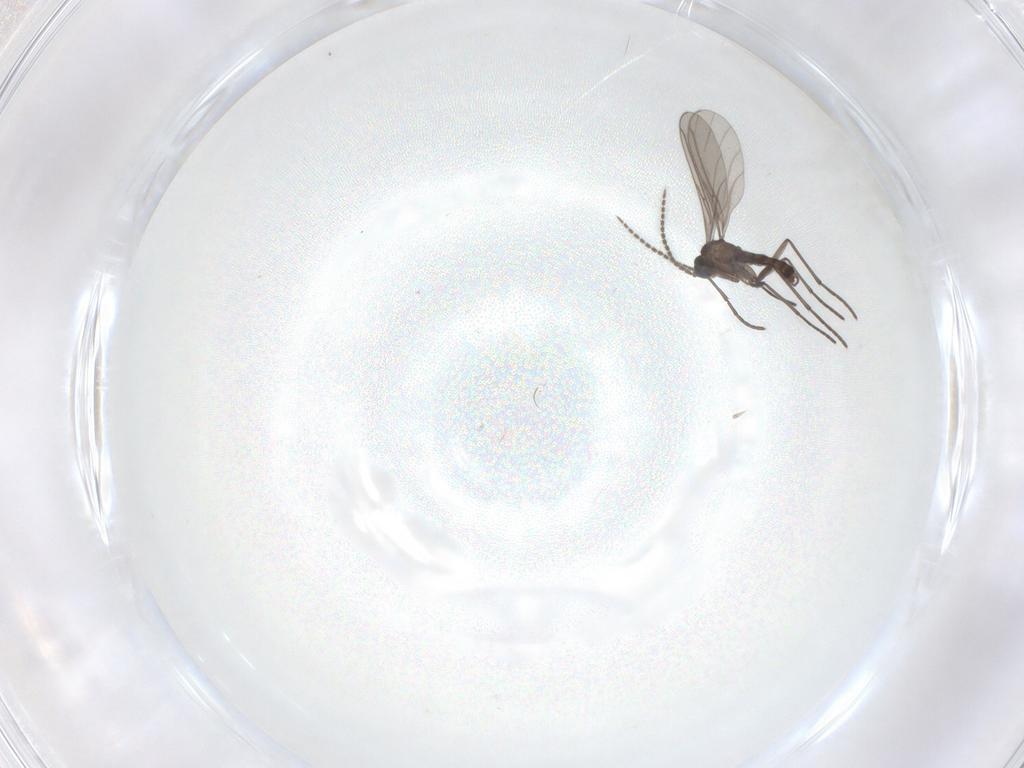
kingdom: Animalia
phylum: Arthropoda
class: Insecta
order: Diptera
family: Sciaridae
